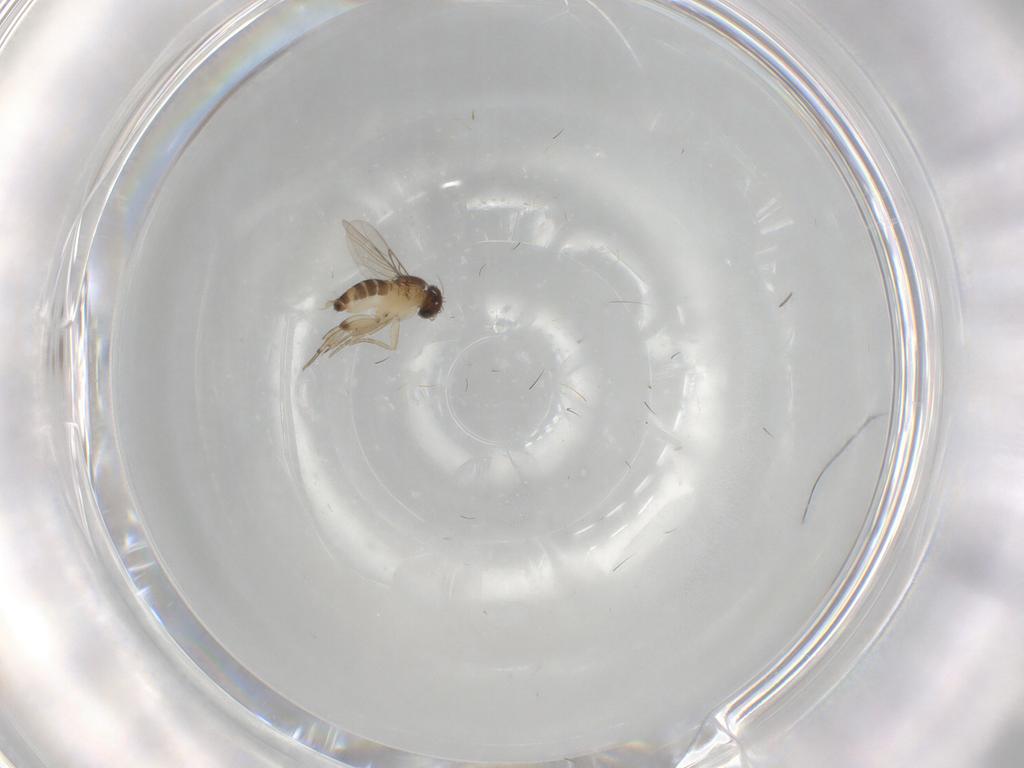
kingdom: Animalia
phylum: Arthropoda
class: Insecta
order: Diptera
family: Phoridae
